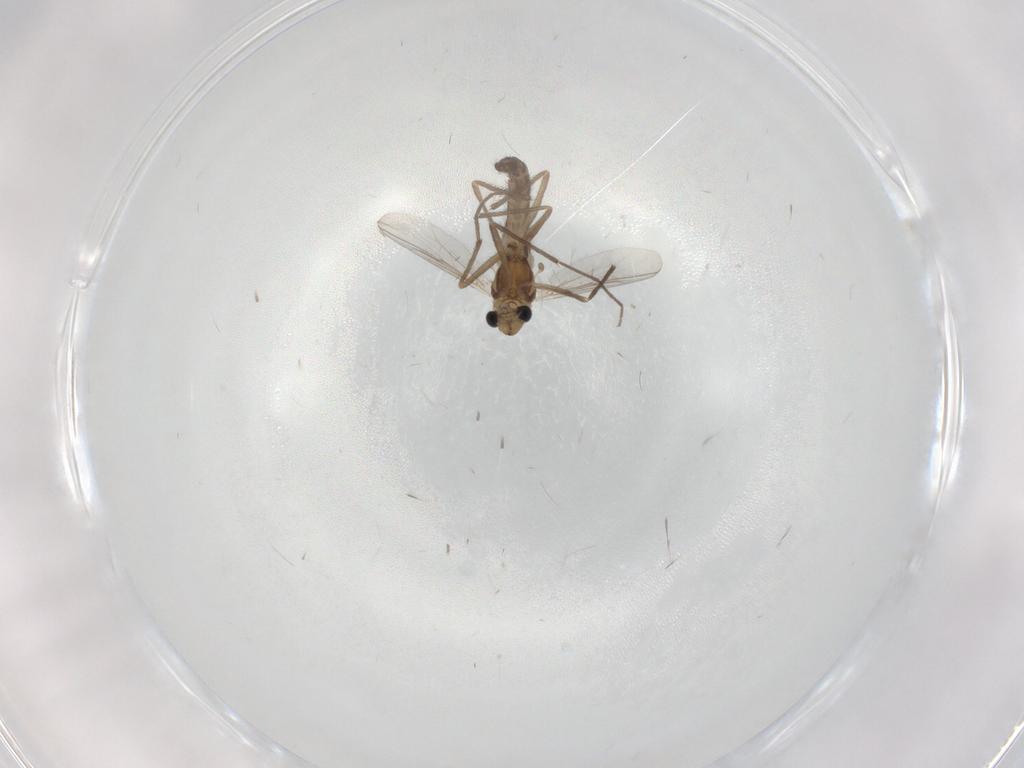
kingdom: Animalia
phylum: Arthropoda
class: Insecta
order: Diptera
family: Chironomidae
